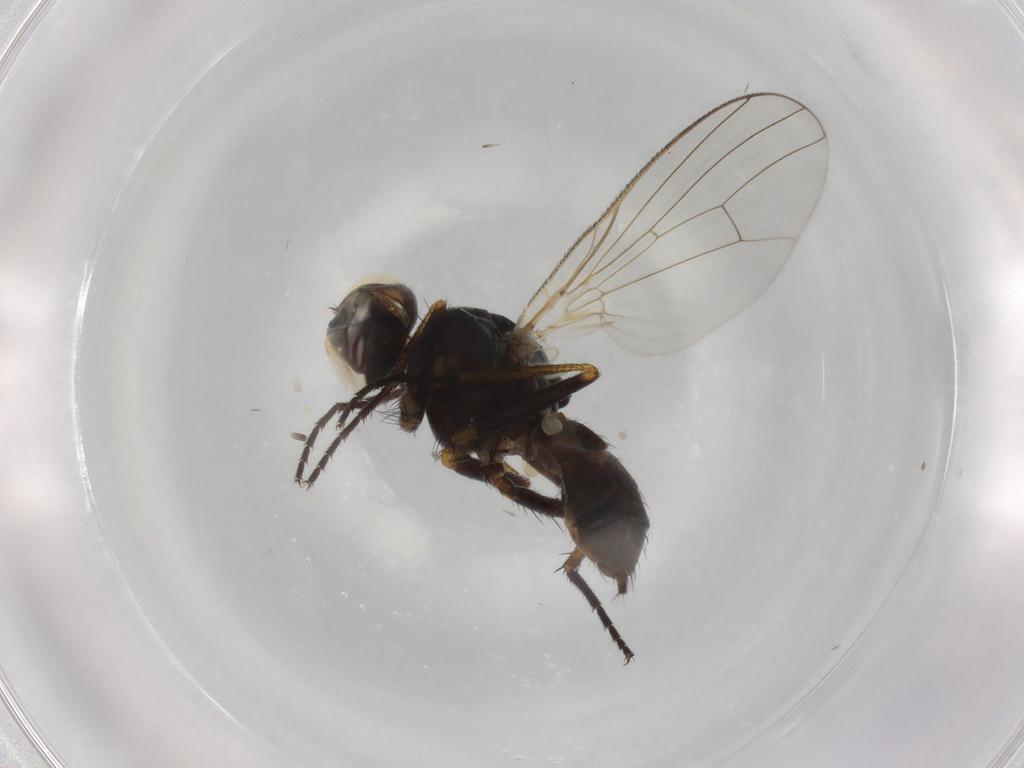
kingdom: Animalia
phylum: Arthropoda
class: Insecta
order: Diptera
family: Muscidae
